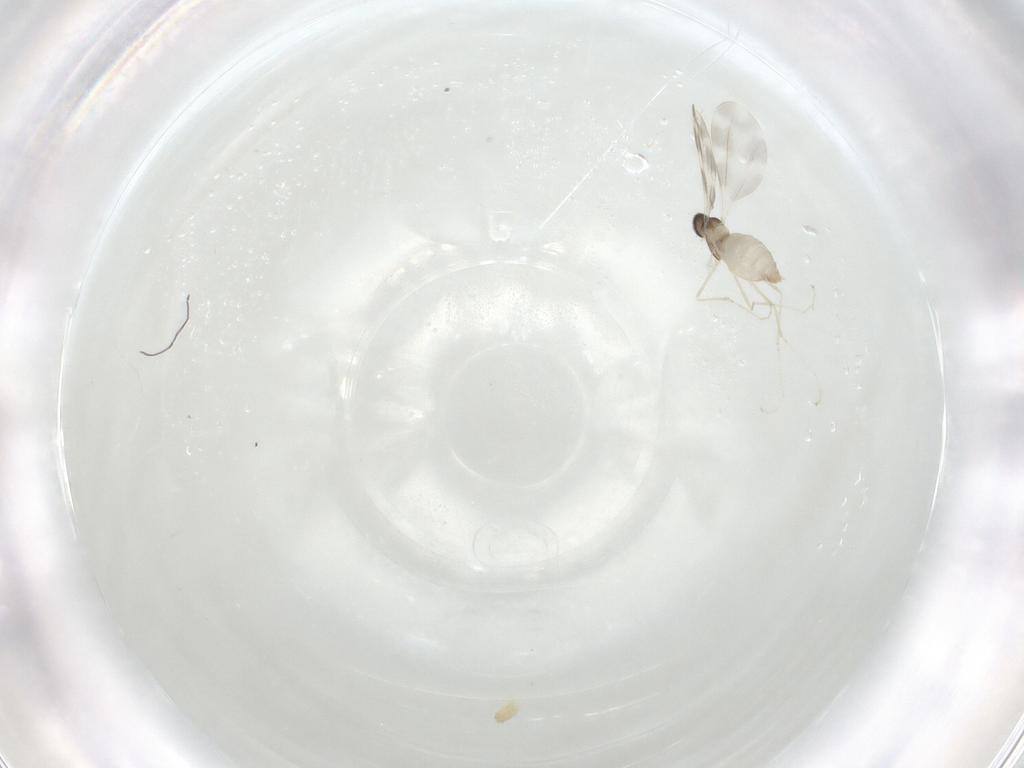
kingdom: Animalia
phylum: Arthropoda
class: Insecta
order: Diptera
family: Cecidomyiidae
